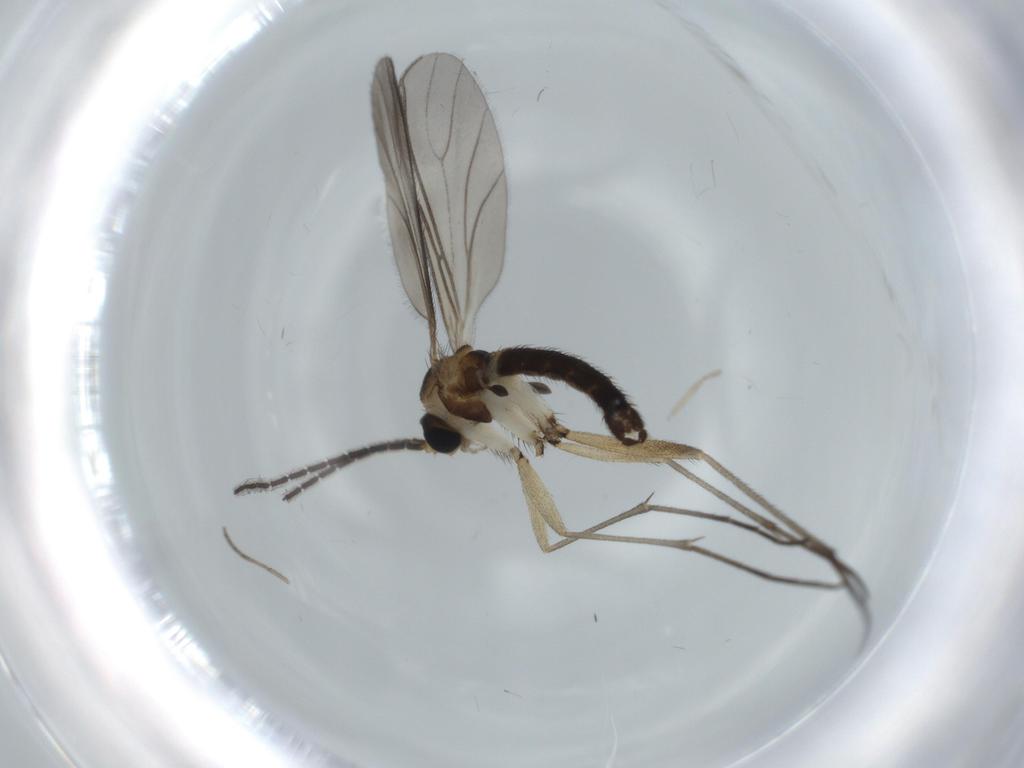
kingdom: Animalia
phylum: Arthropoda
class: Insecta
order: Diptera
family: Sciaridae
